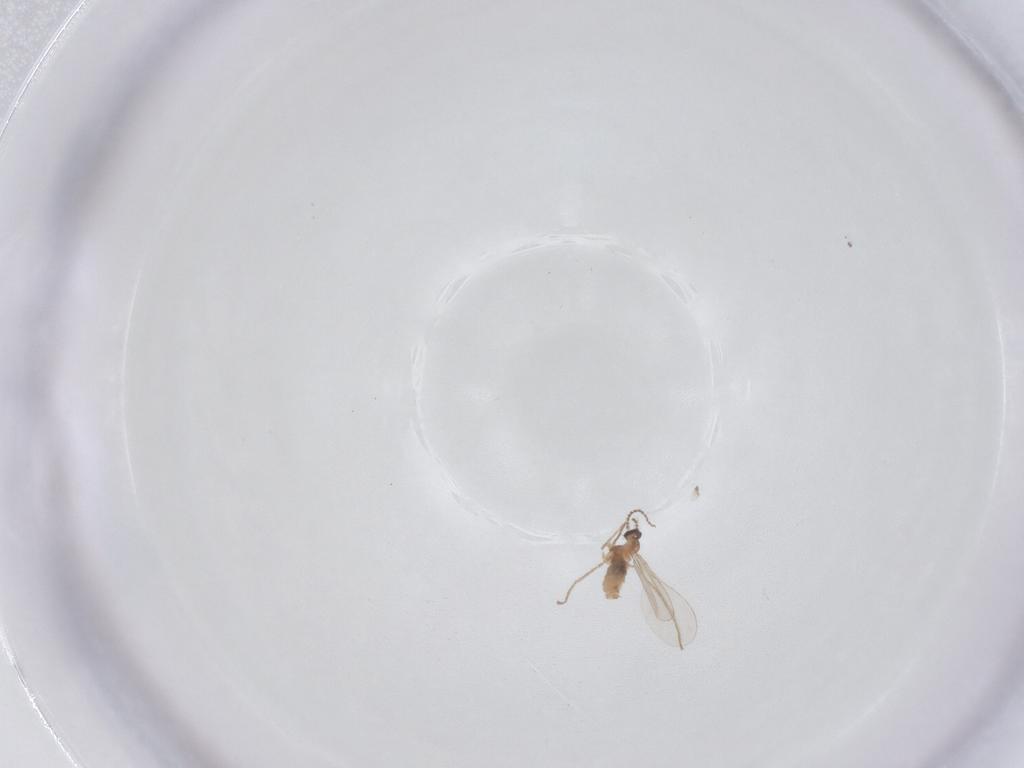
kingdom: Animalia
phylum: Arthropoda
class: Insecta
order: Diptera
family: Cecidomyiidae
